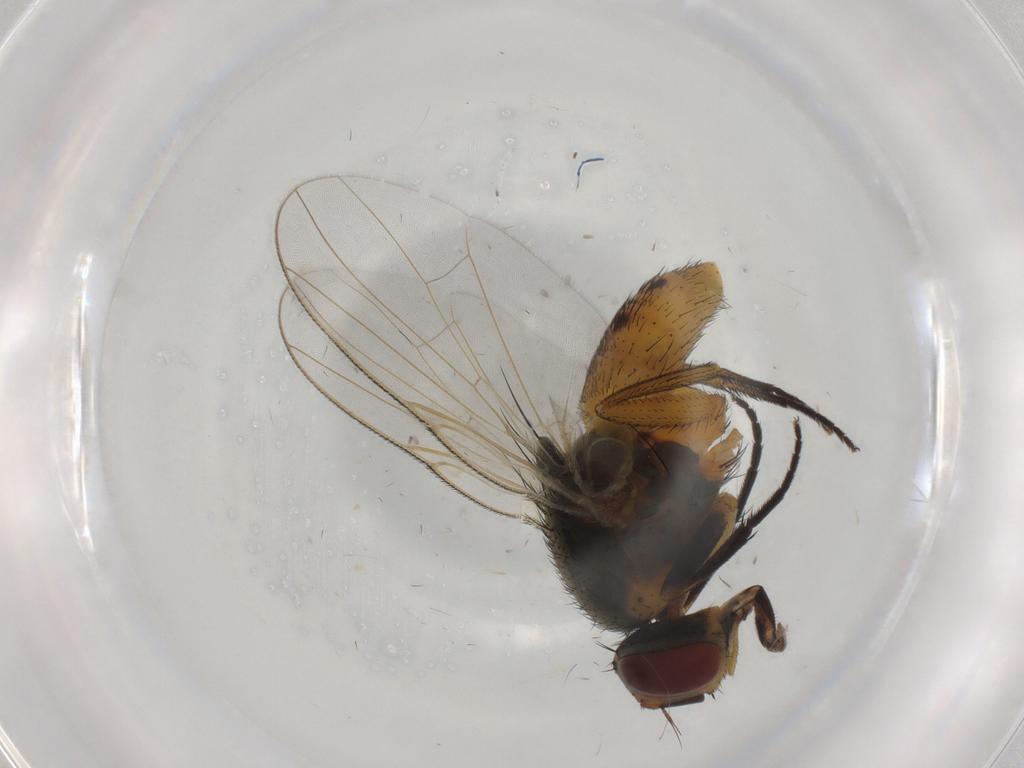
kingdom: Animalia
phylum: Arthropoda
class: Insecta
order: Diptera
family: Muscidae
